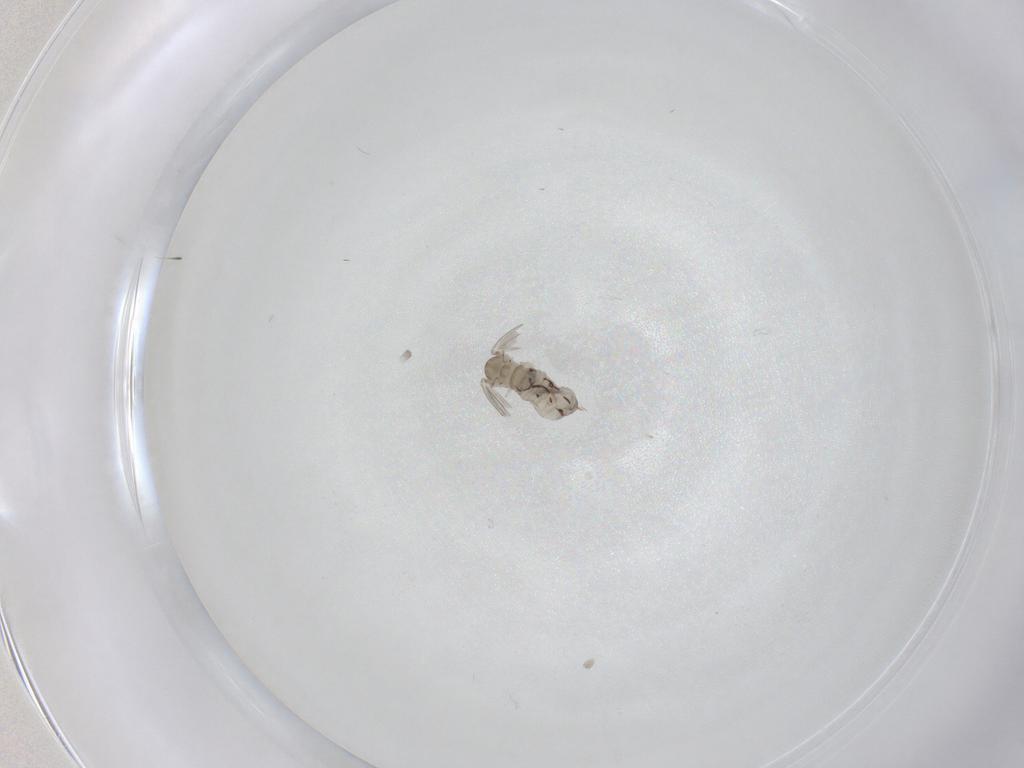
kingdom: Animalia
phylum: Arthropoda
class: Insecta
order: Diptera
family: Psychodidae
